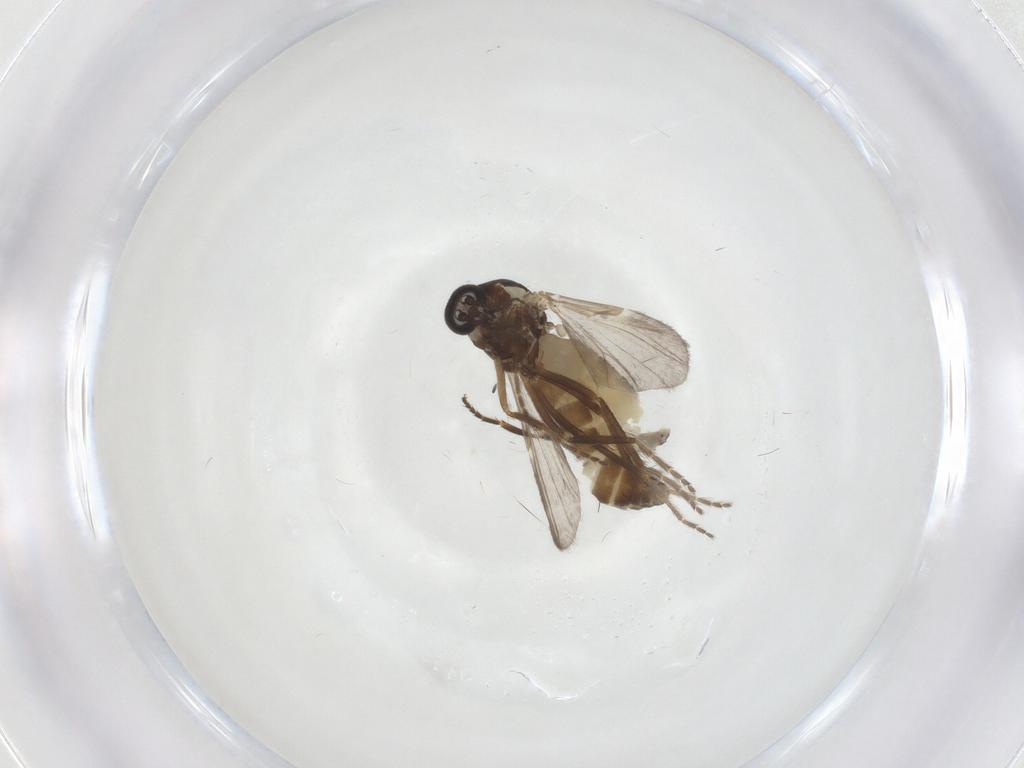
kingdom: Animalia
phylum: Arthropoda
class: Insecta
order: Diptera
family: Ceratopogonidae
